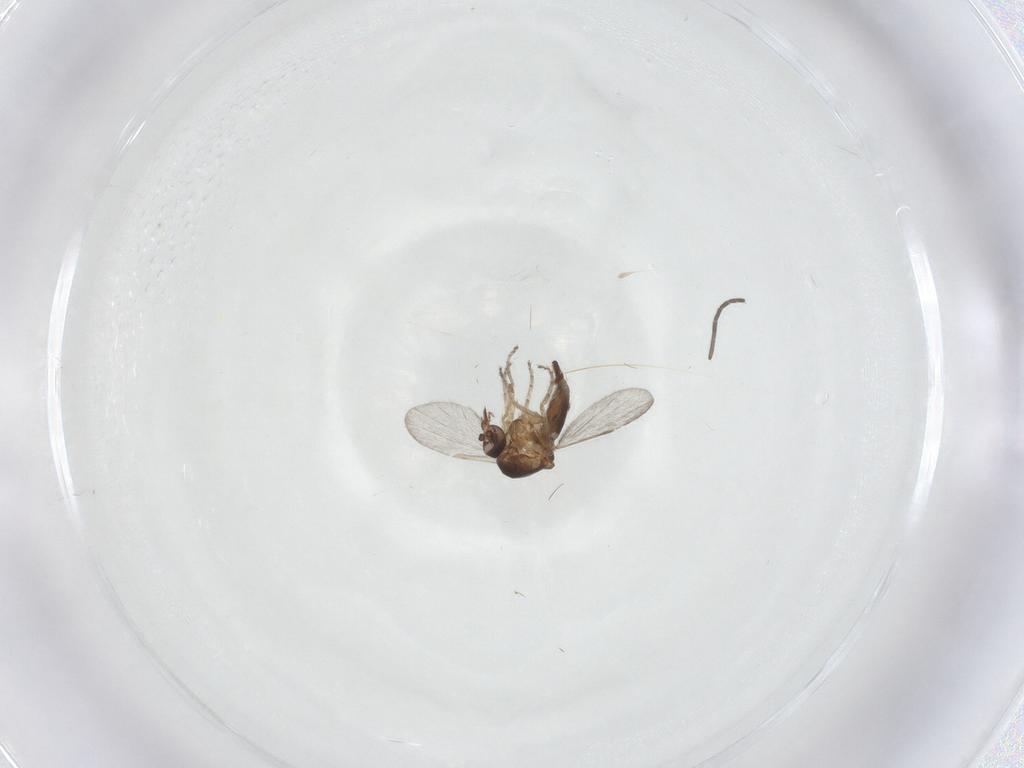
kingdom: Animalia
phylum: Arthropoda
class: Insecta
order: Diptera
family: Ceratopogonidae
